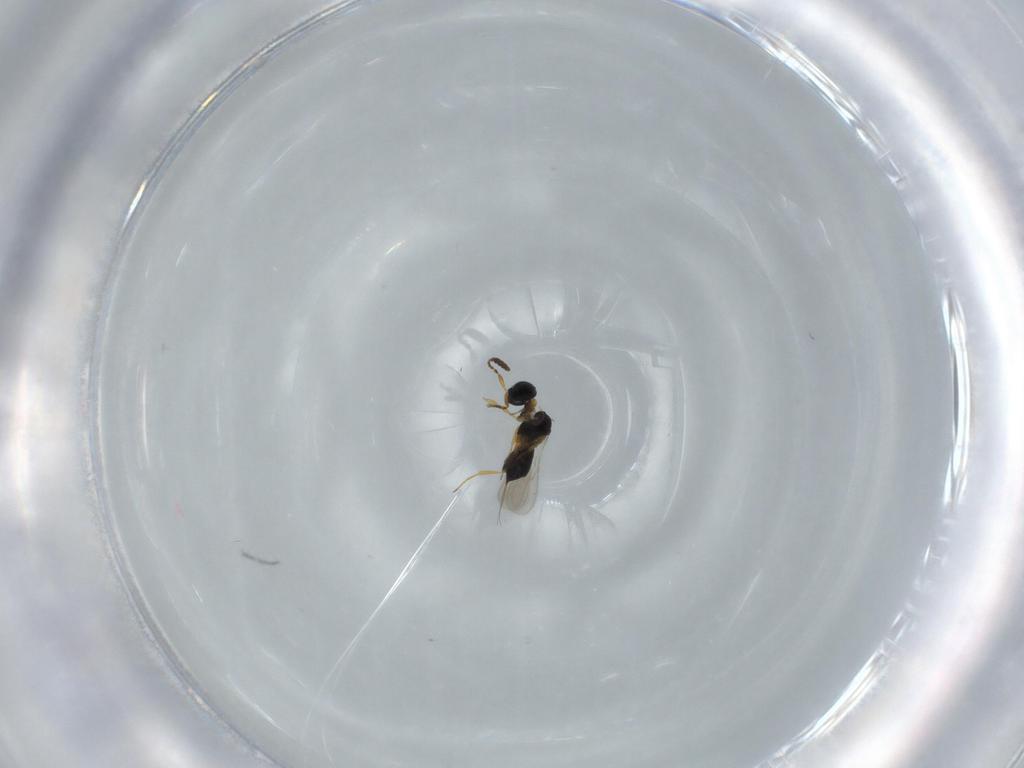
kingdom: Animalia
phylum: Arthropoda
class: Insecta
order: Hymenoptera
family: Scelionidae
